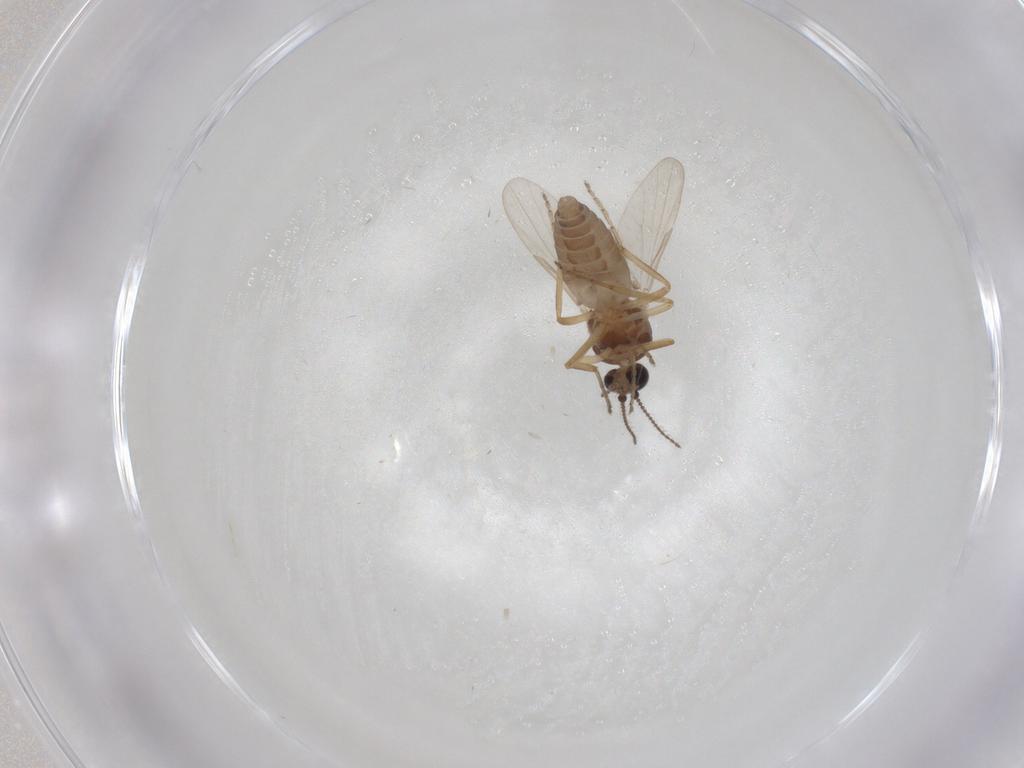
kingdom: Animalia
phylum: Arthropoda
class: Insecta
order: Diptera
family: Ceratopogonidae
